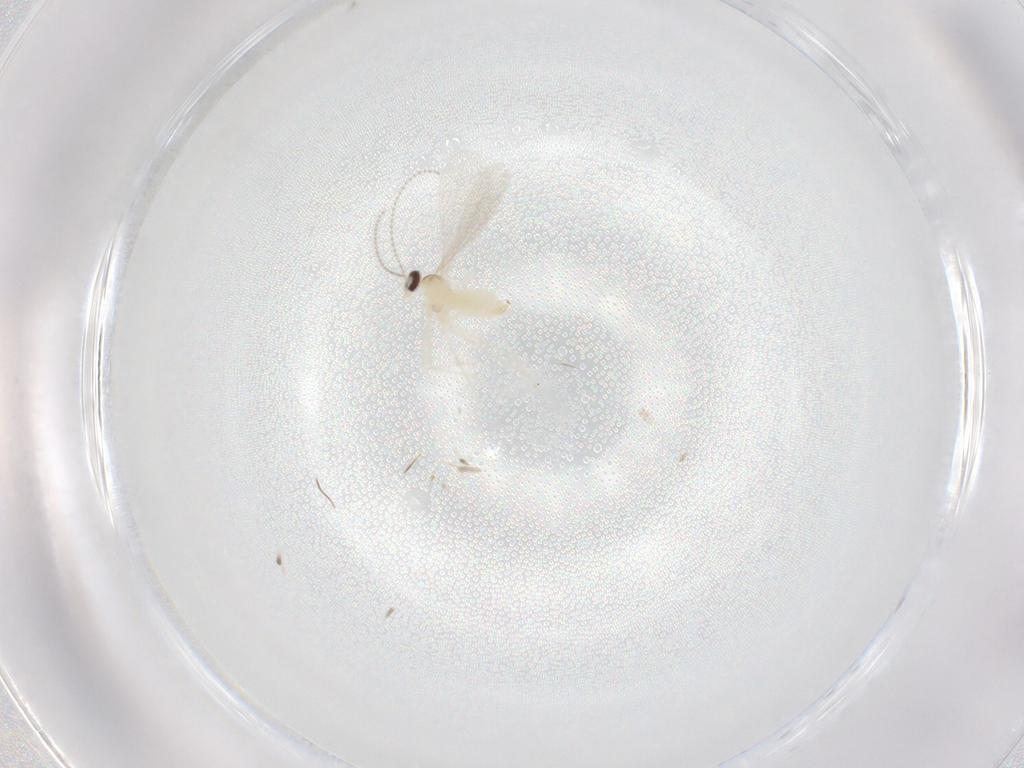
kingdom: Animalia
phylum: Arthropoda
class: Insecta
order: Diptera
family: Cecidomyiidae
